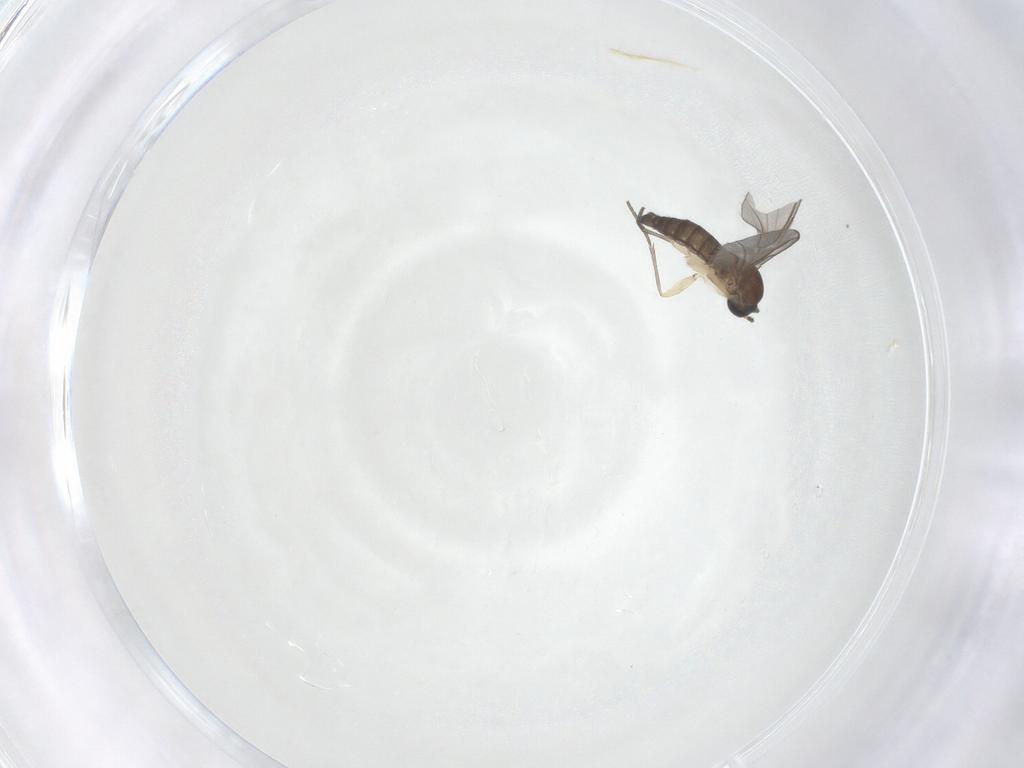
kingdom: Animalia
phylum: Arthropoda
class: Insecta
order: Diptera
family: Sciaridae
